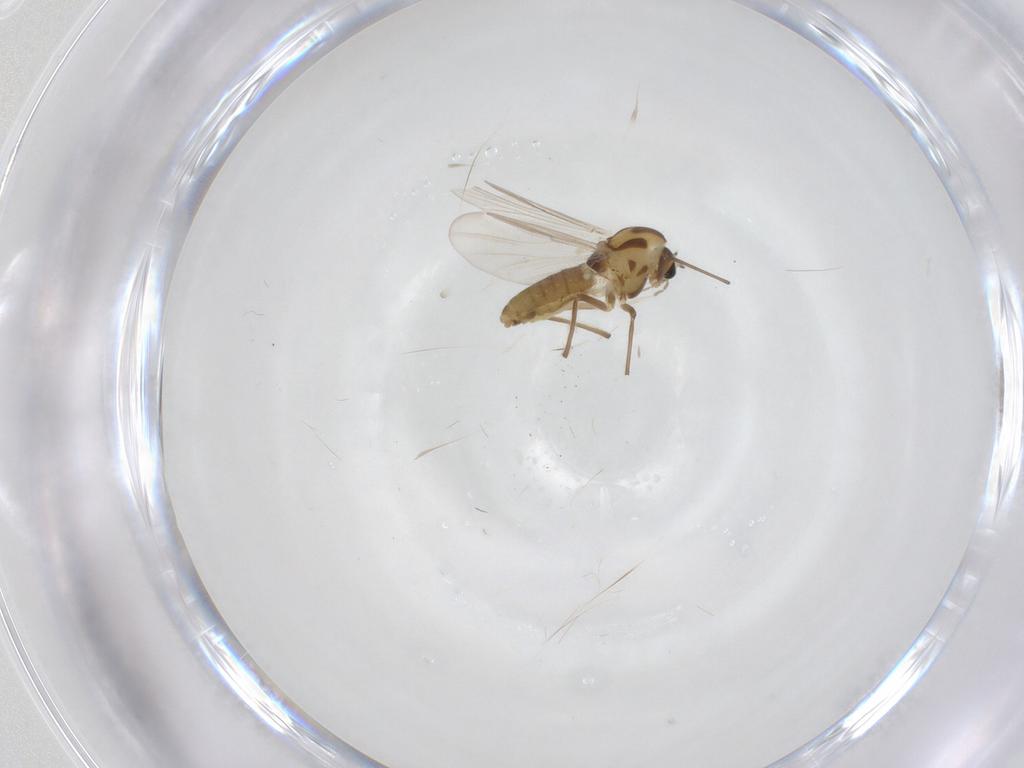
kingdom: Animalia
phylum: Arthropoda
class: Insecta
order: Diptera
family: Chironomidae
